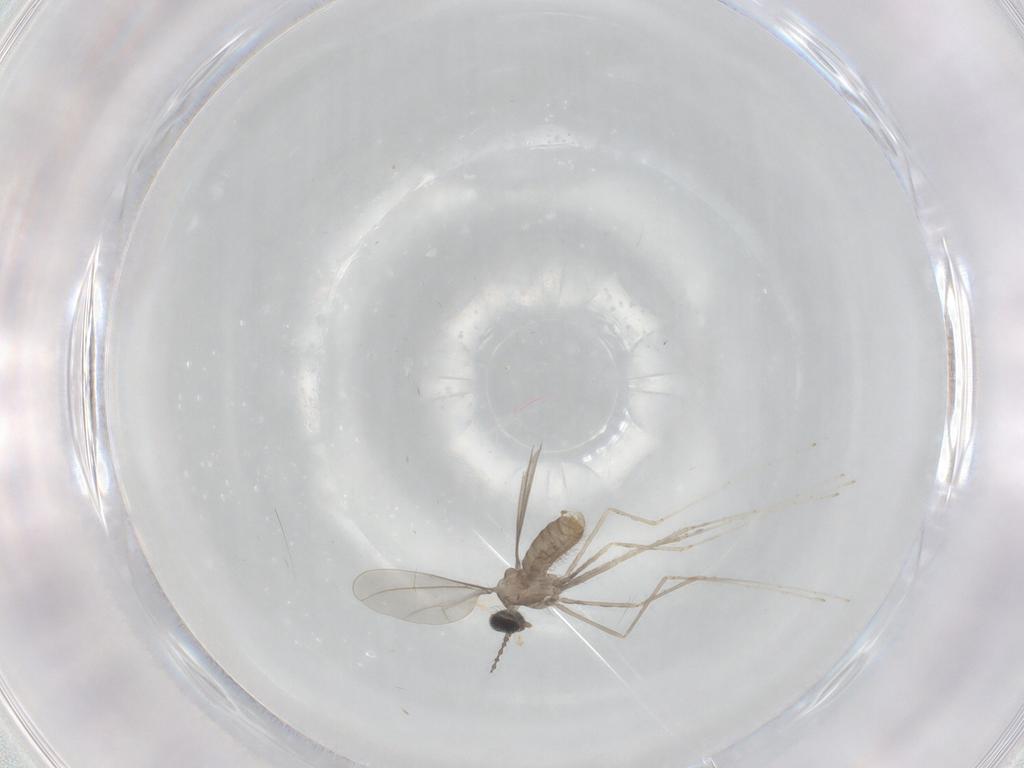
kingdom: Animalia
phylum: Arthropoda
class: Insecta
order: Diptera
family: Cecidomyiidae
